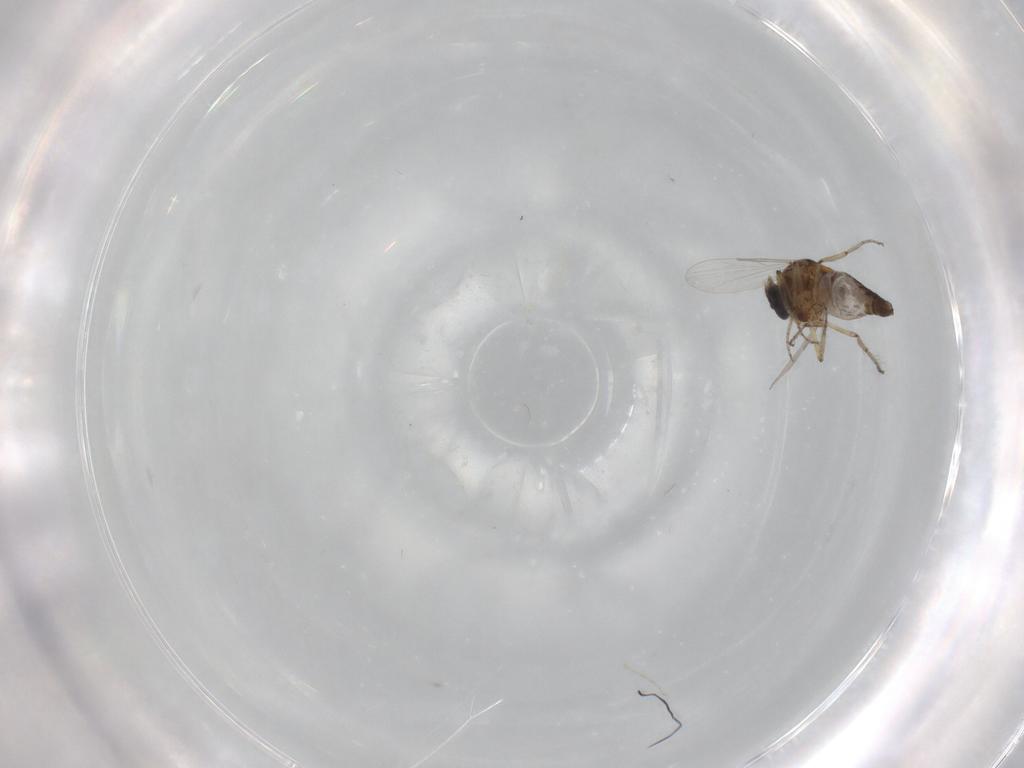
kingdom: Animalia
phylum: Arthropoda
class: Insecta
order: Diptera
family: Ceratopogonidae
